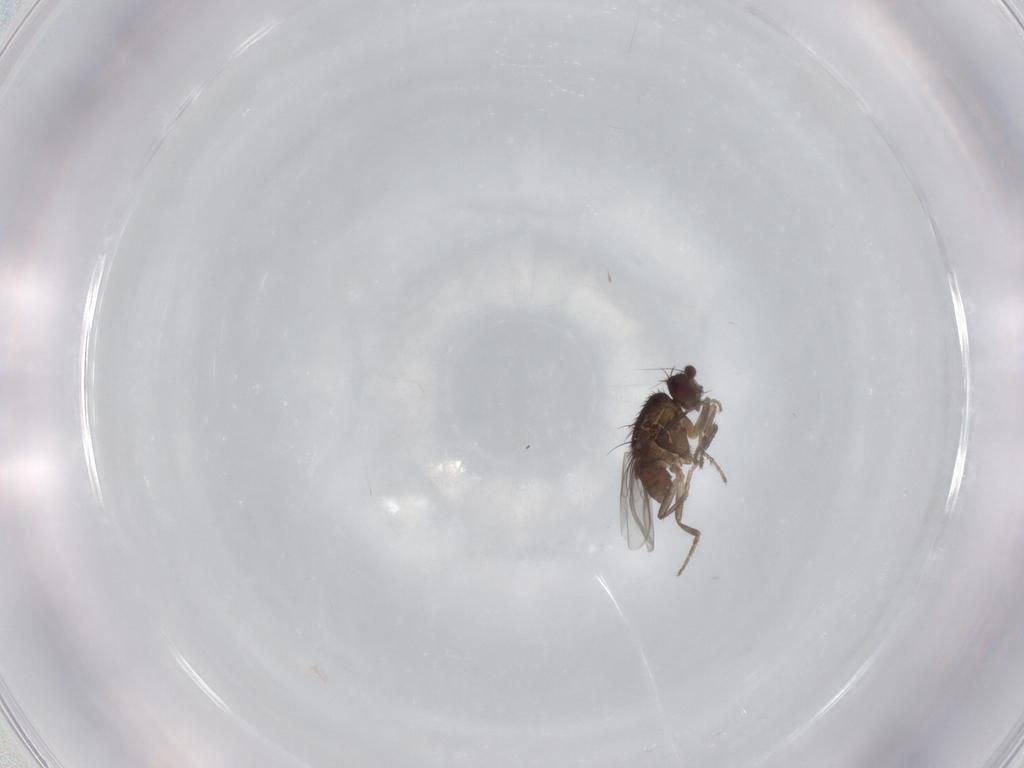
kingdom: Animalia
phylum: Arthropoda
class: Insecta
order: Diptera
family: Sphaeroceridae
